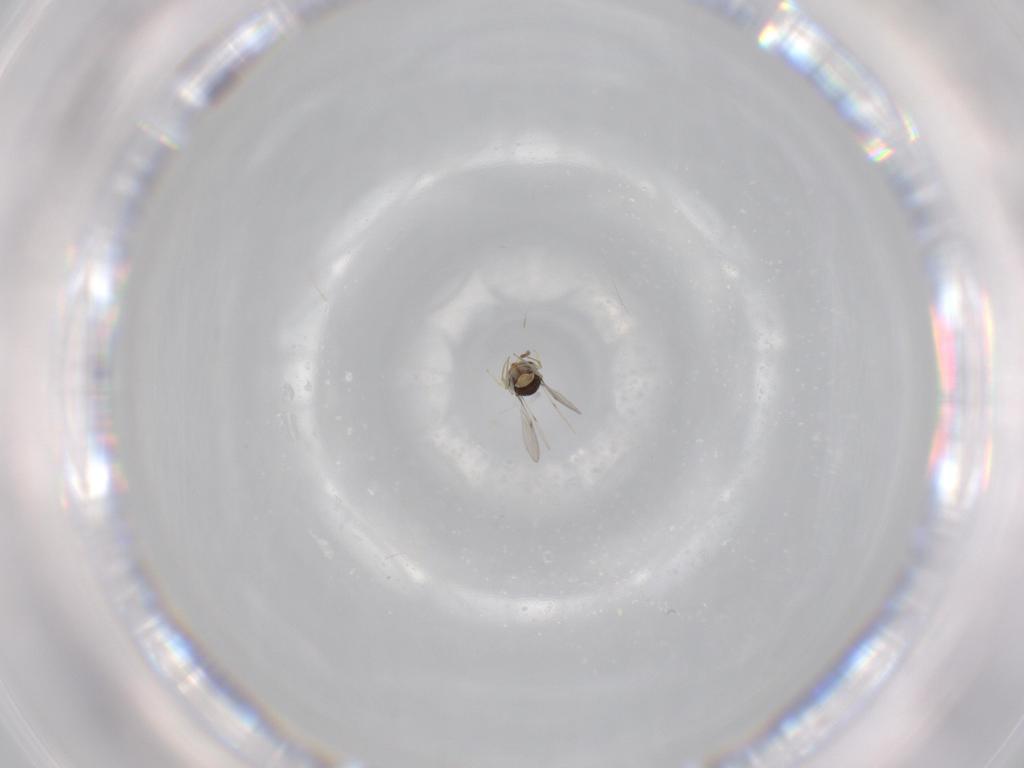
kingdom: Animalia
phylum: Arthropoda
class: Insecta
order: Hymenoptera
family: Scelionidae
